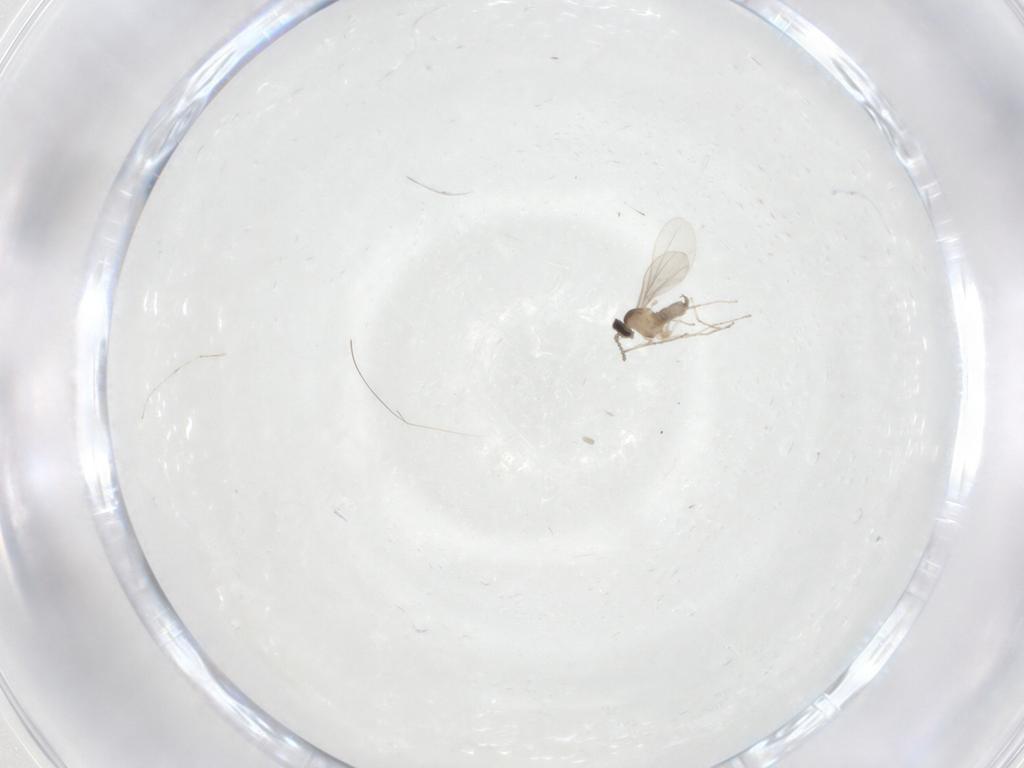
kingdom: Animalia
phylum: Arthropoda
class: Insecta
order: Diptera
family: Cecidomyiidae
